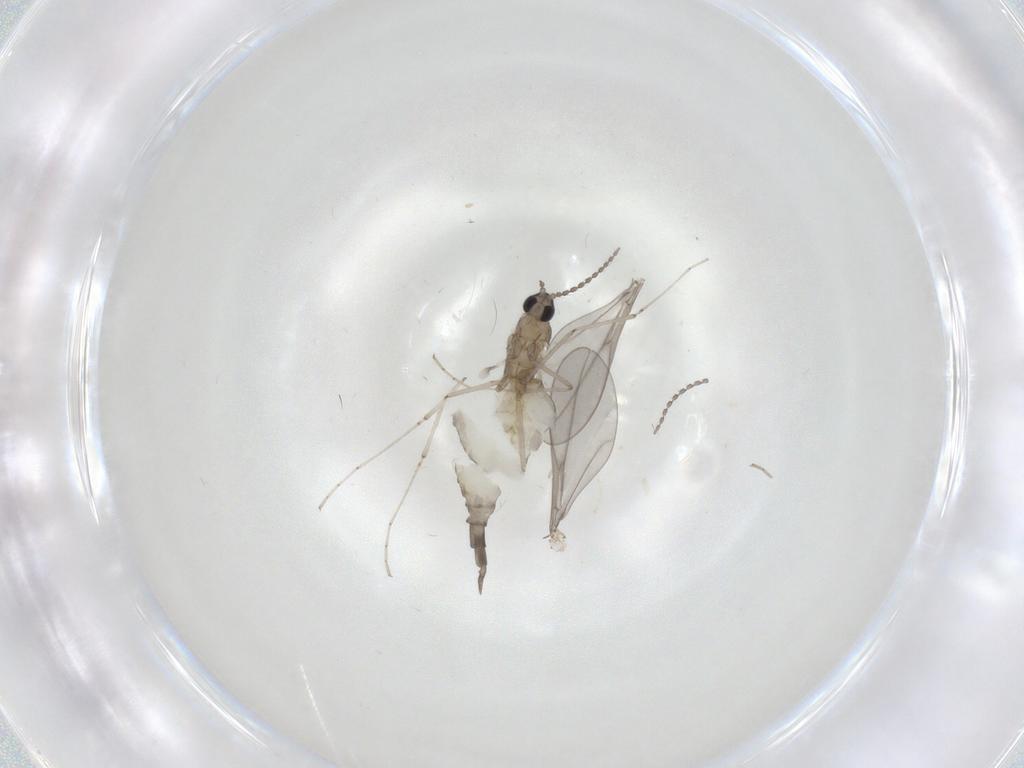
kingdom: Animalia
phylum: Arthropoda
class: Insecta
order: Diptera
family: Cecidomyiidae
